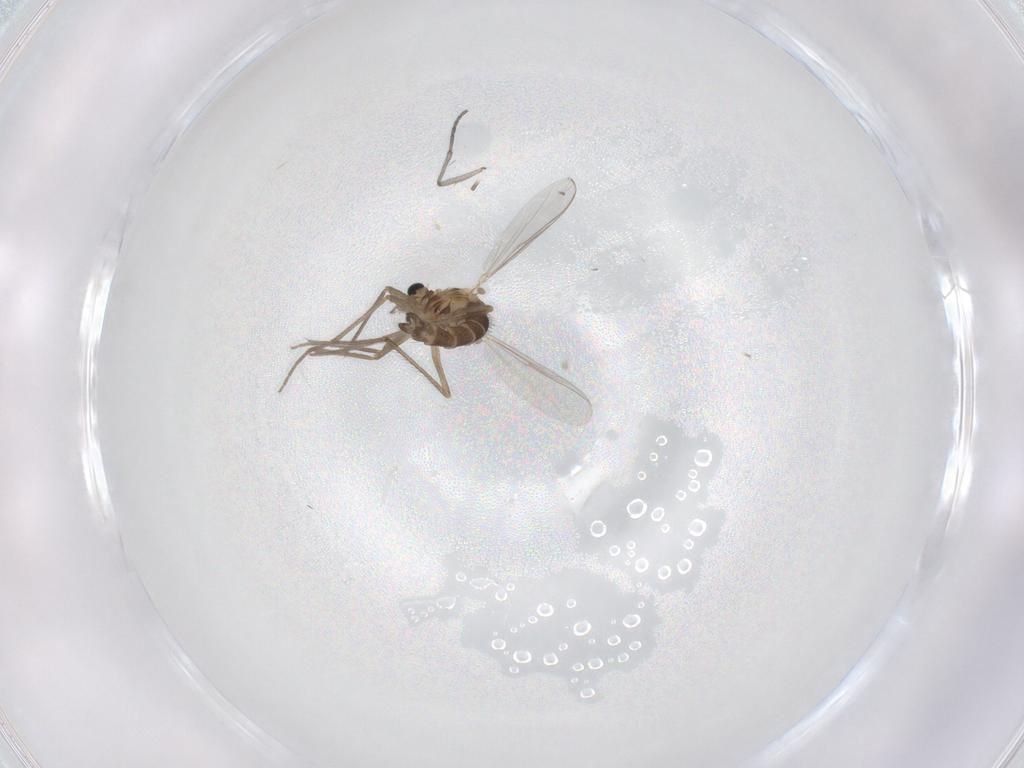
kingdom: Animalia
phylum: Arthropoda
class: Insecta
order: Diptera
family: Chironomidae
